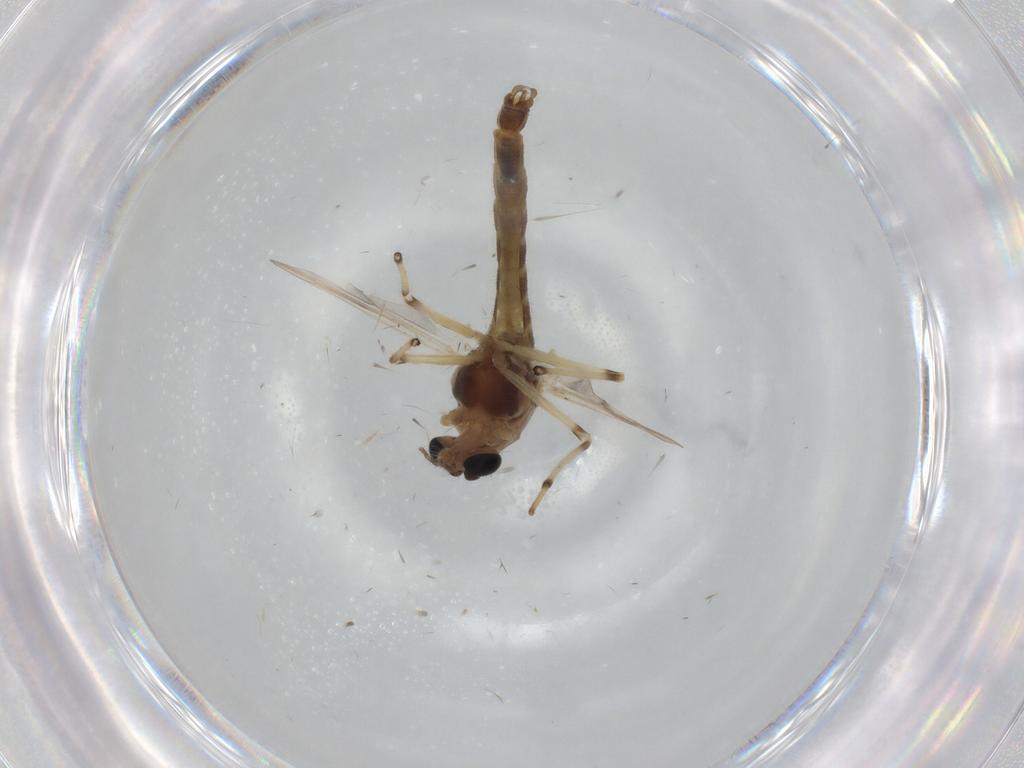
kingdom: Animalia
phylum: Arthropoda
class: Insecta
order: Diptera
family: Chironomidae
